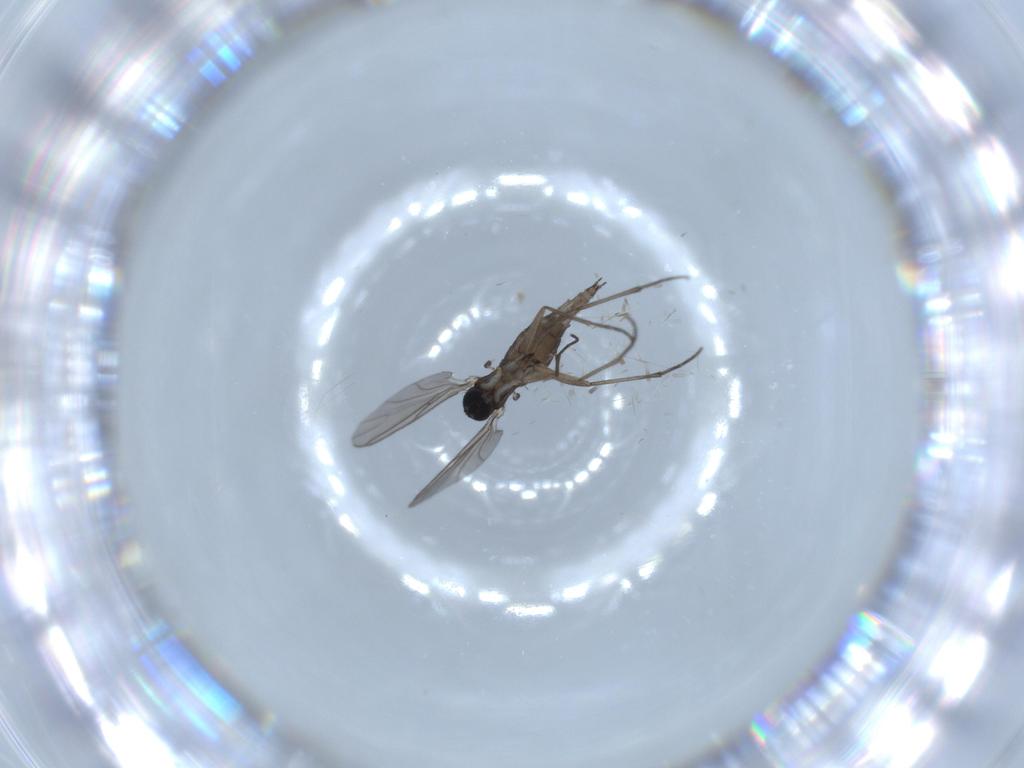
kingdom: Animalia
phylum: Arthropoda
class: Insecta
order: Diptera
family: Sciaridae
